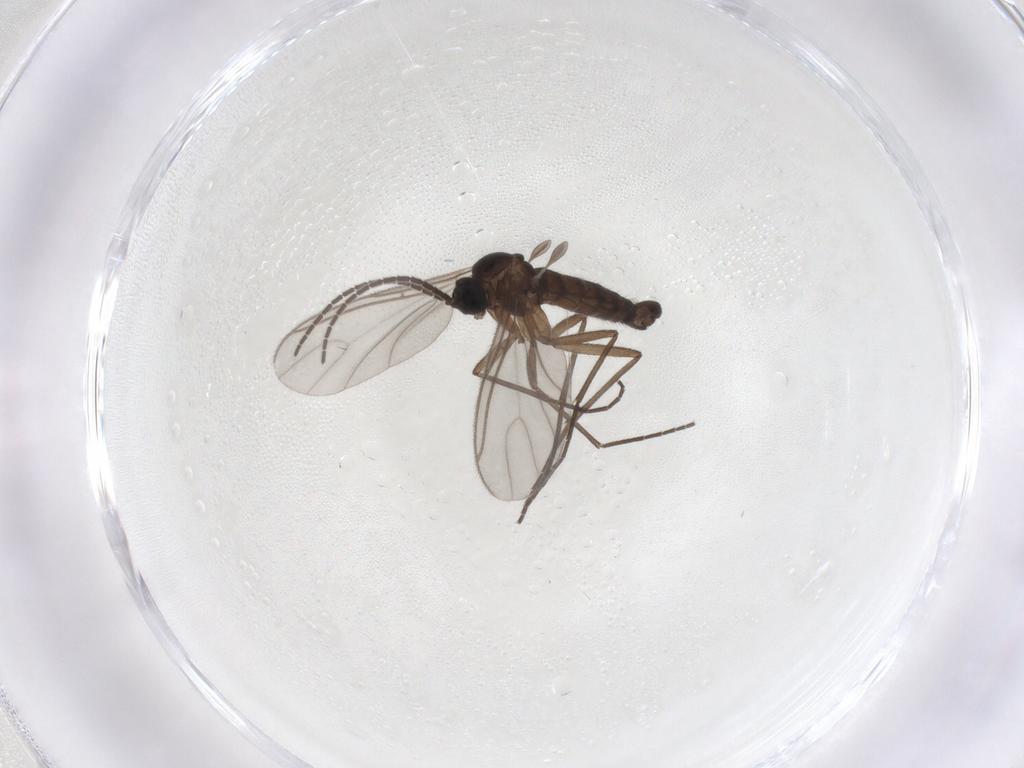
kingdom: Animalia
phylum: Arthropoda
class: Insecta
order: Diptera
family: Sciaridae
